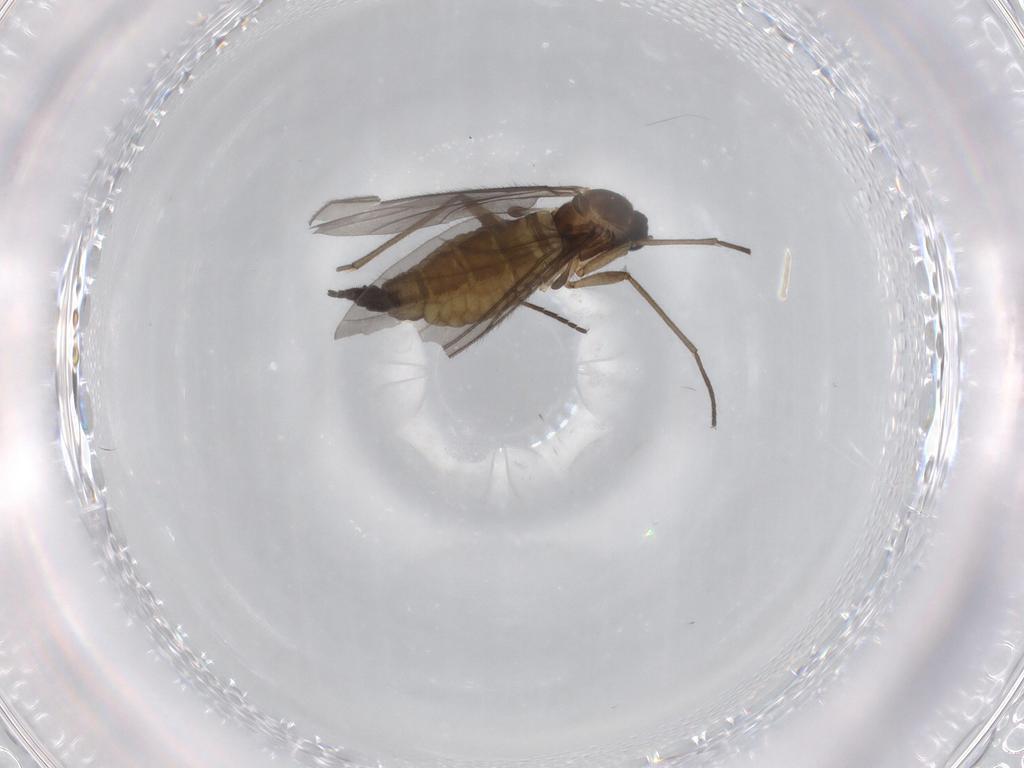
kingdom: Animalia
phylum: Arthropoda
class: Insecta
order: Diptera
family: Sciaridae
